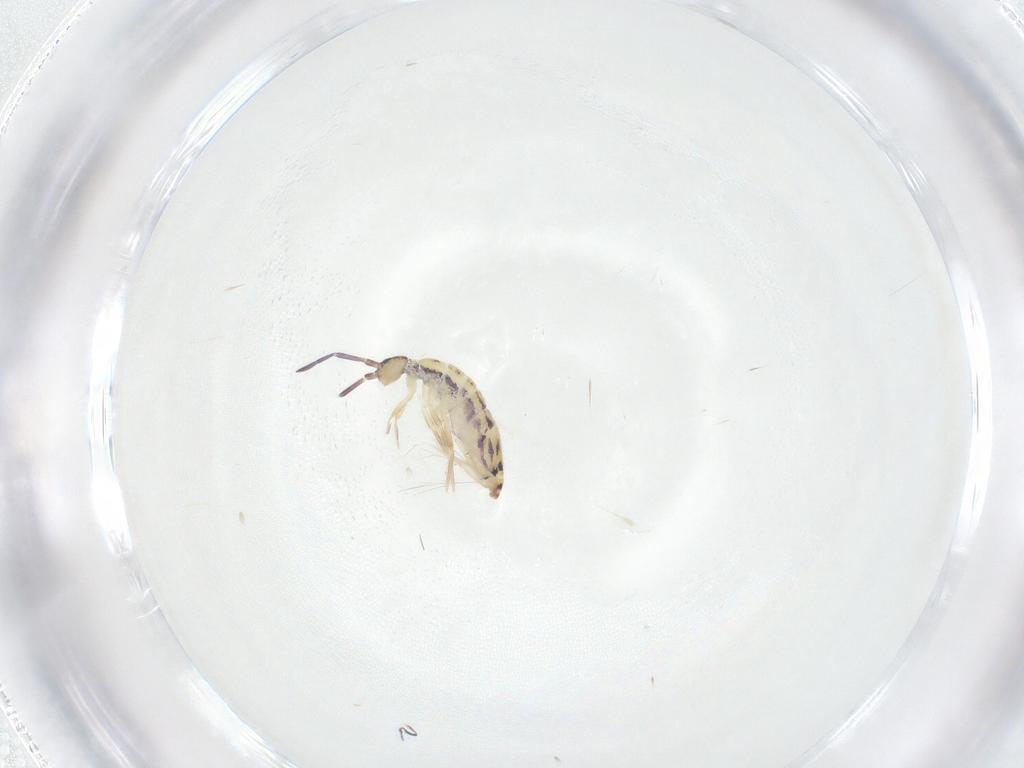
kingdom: Animalia
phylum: Arthropoda
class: Collembola
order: Entomobryomorpha
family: Entomobryidae
